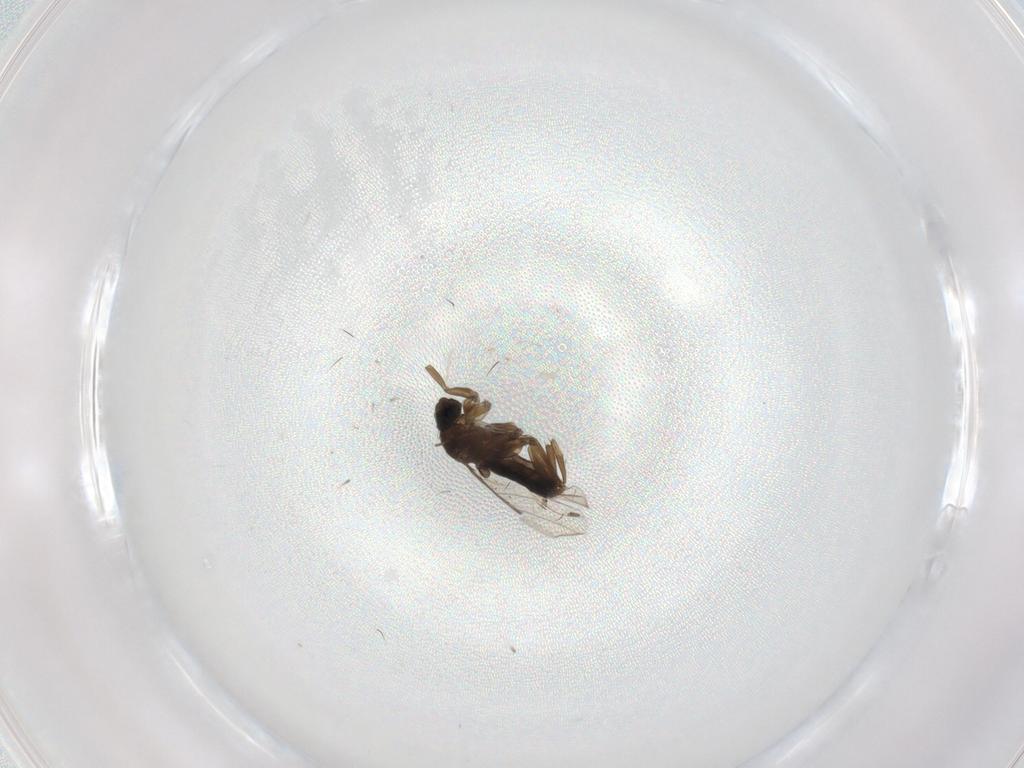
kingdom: Animalia
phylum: Arthropoda
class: Insecta
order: Diptera
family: Sciaridae
